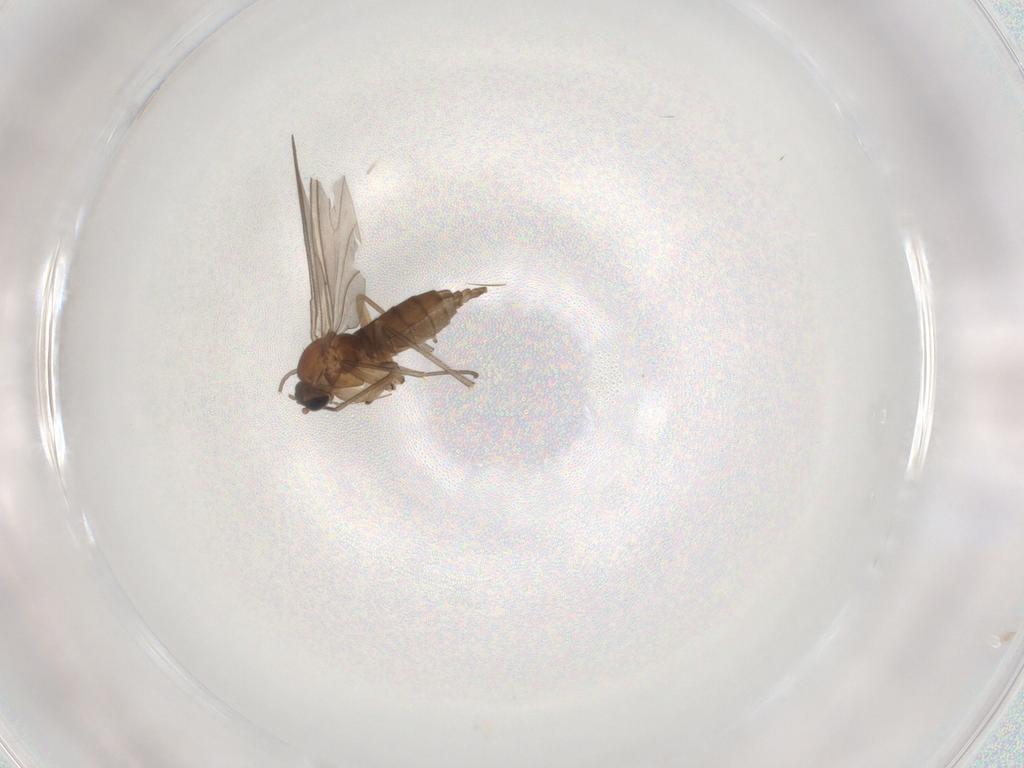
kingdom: Animalia
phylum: Arthropoda
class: Insecta
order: Diptera
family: Sciaridae
